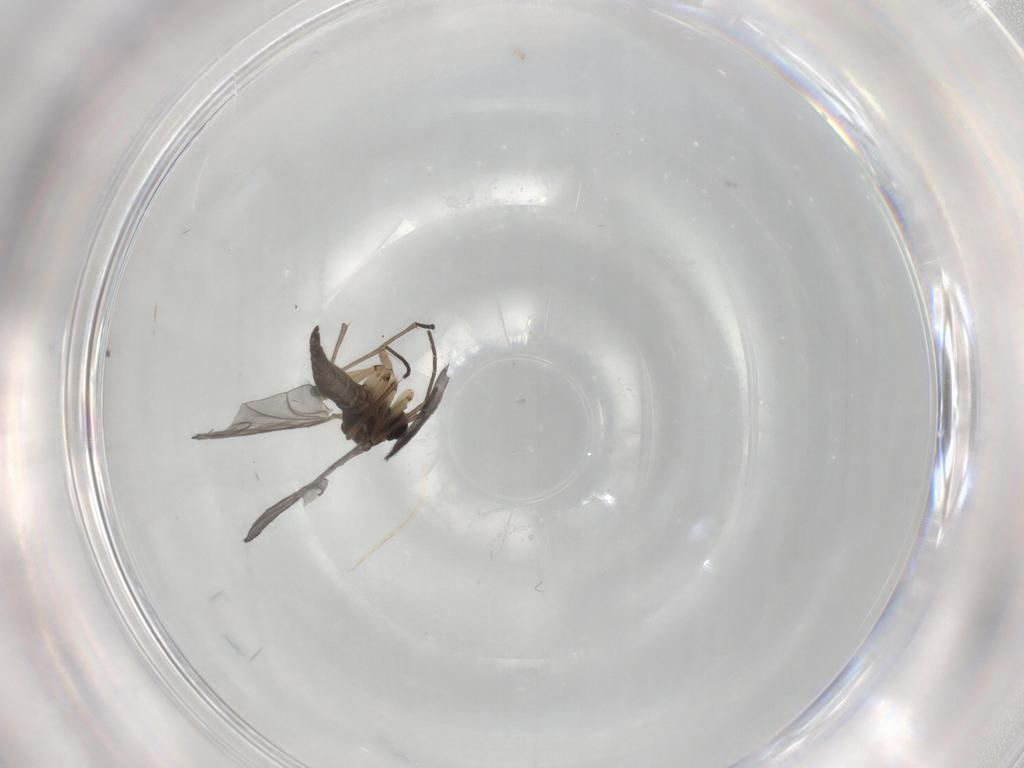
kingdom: Animalia
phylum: Arthropoda
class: Insecta
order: Diptera
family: Sciaridae
